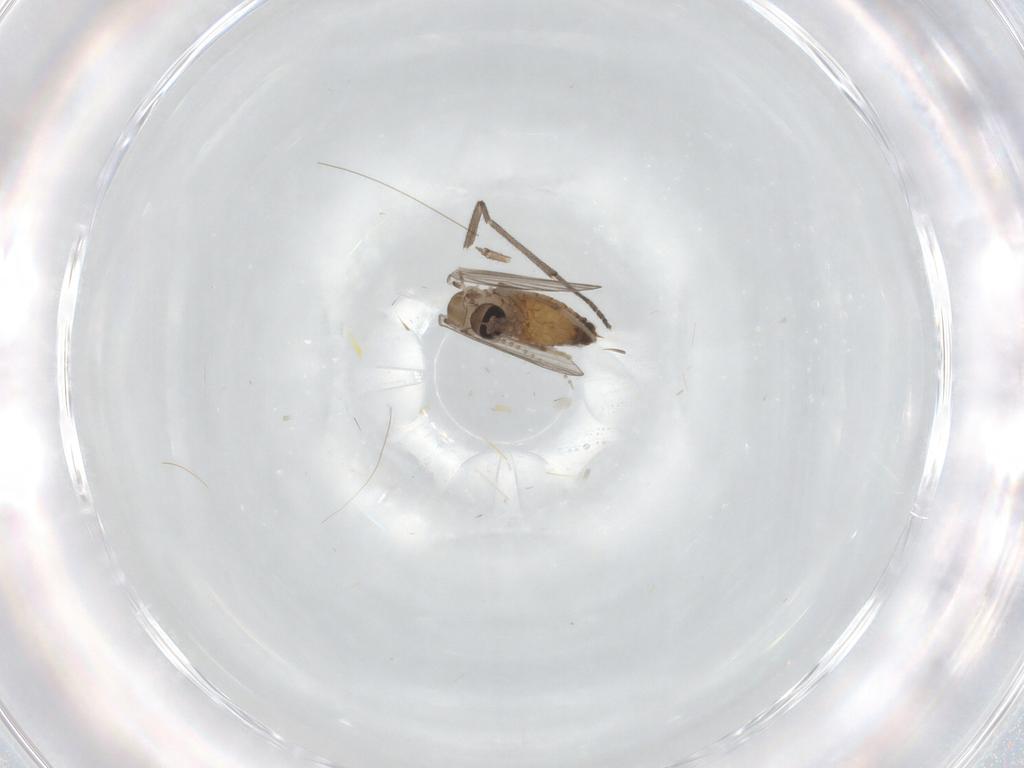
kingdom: Animalia
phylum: Arthropoda
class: Insecta
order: Diptera
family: Psychodidae
